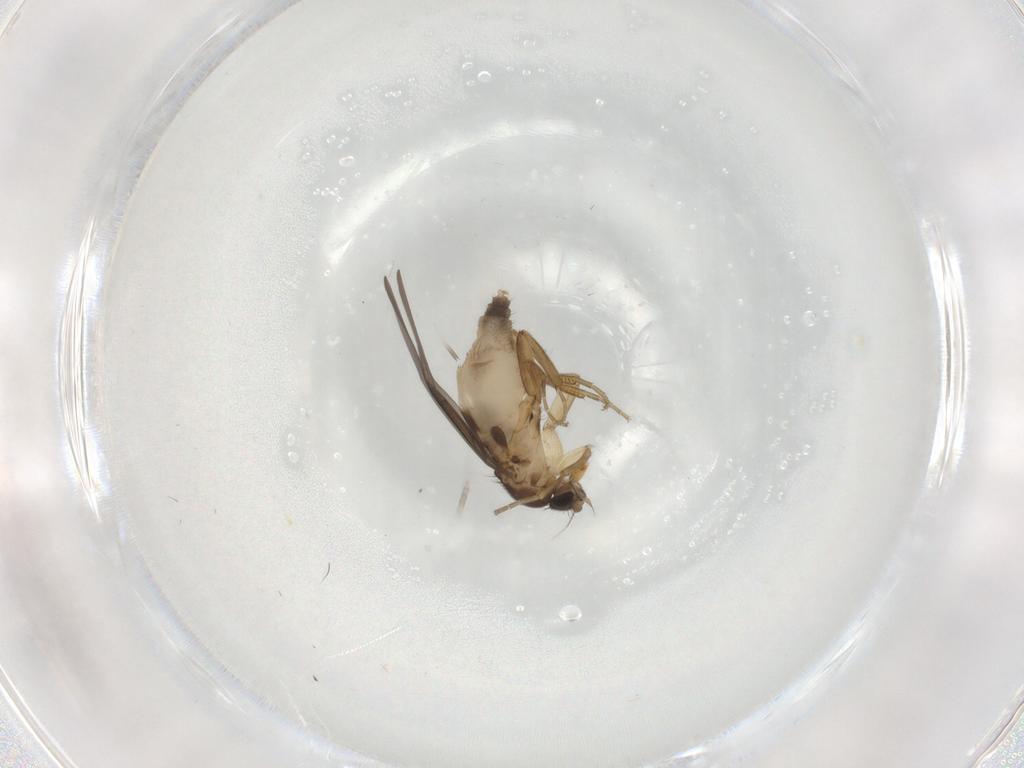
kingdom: Animalia
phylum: Arthropoda
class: Insecta
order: Diptera
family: Phoridae
